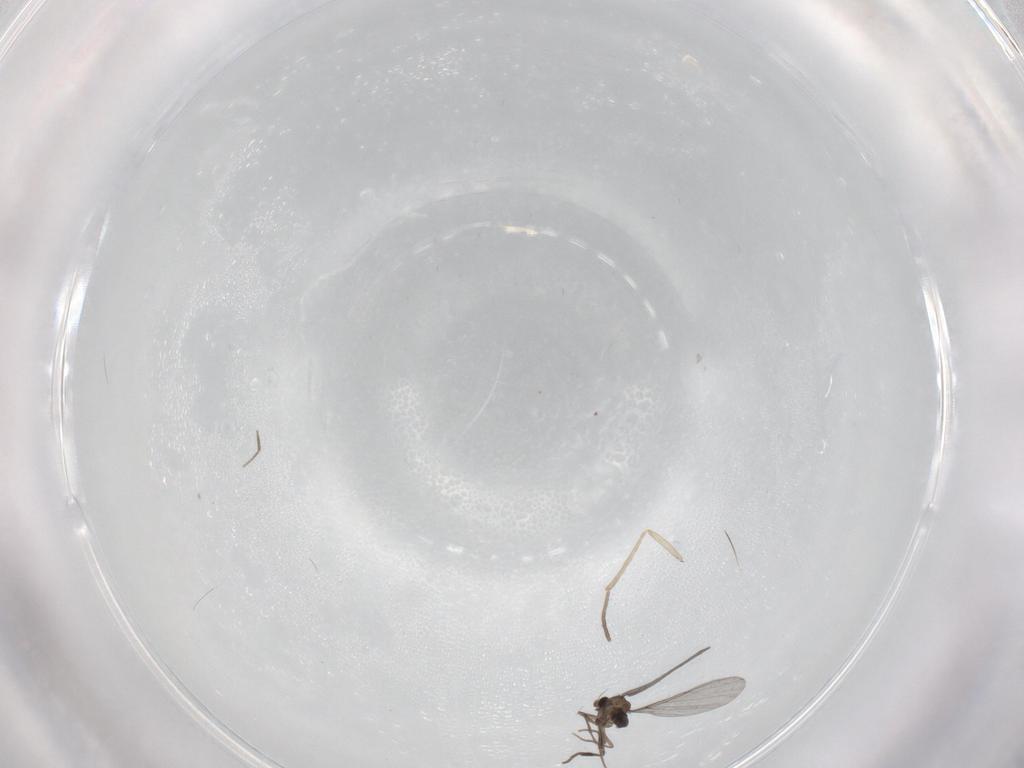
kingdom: Animalia
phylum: Arthropoda
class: Insecta
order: Diptera
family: Phoridae
